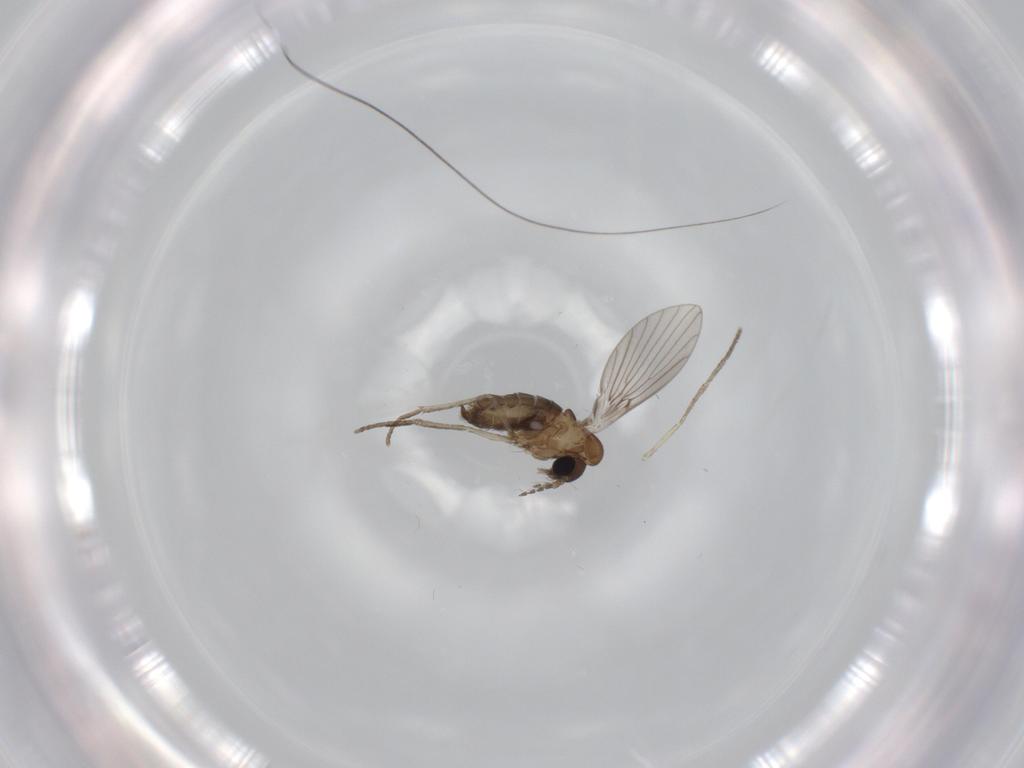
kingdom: Animalia
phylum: Arthropoda
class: Insecta
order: Diptera
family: Psychodidae
